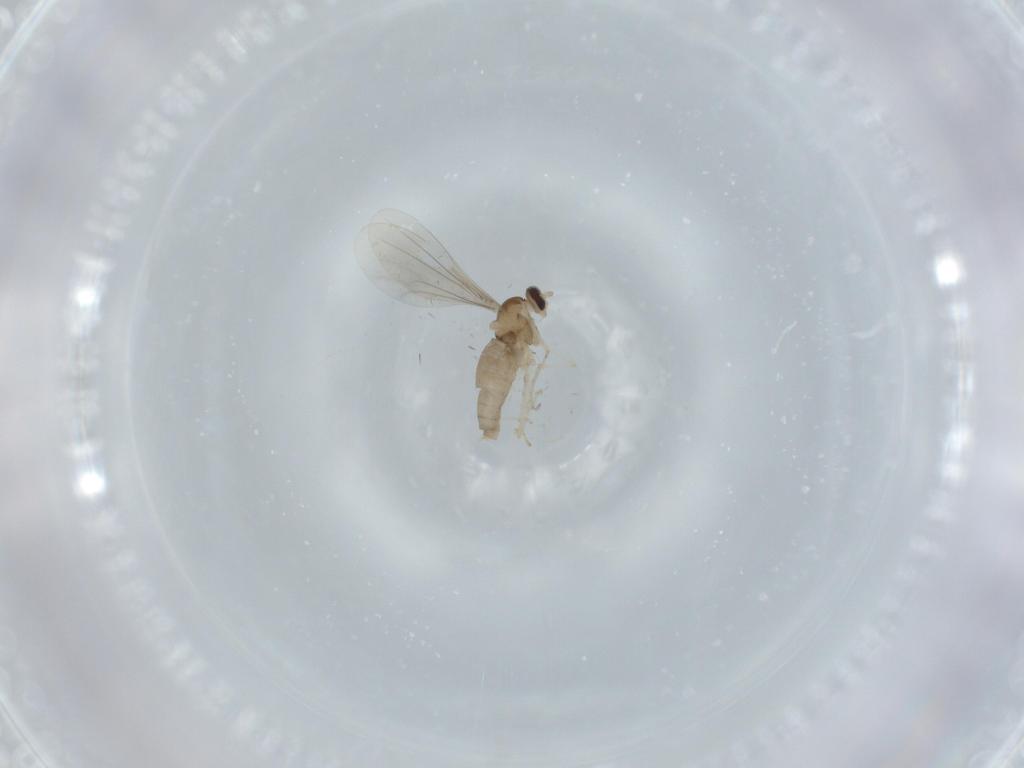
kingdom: Animalia
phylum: Arthropoda
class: Insecta
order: Diptera
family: Cecidomyiidae
